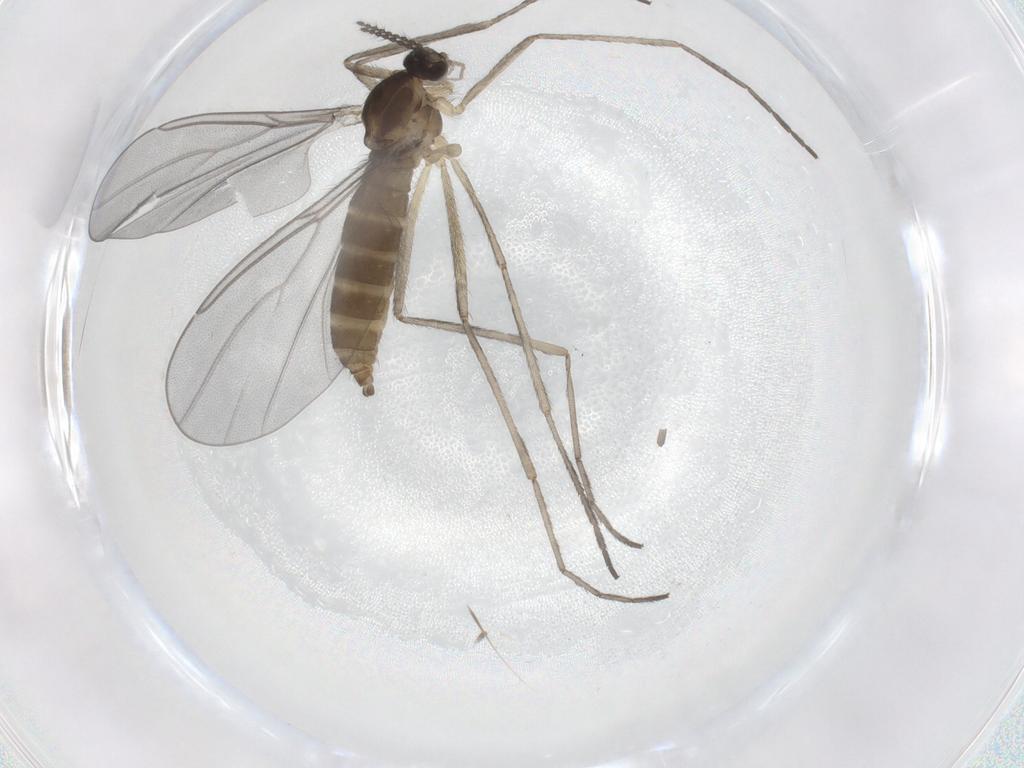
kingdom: Animalia
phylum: Arthropoda
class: Insecta
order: Diptera
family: Cecidomyiidae
